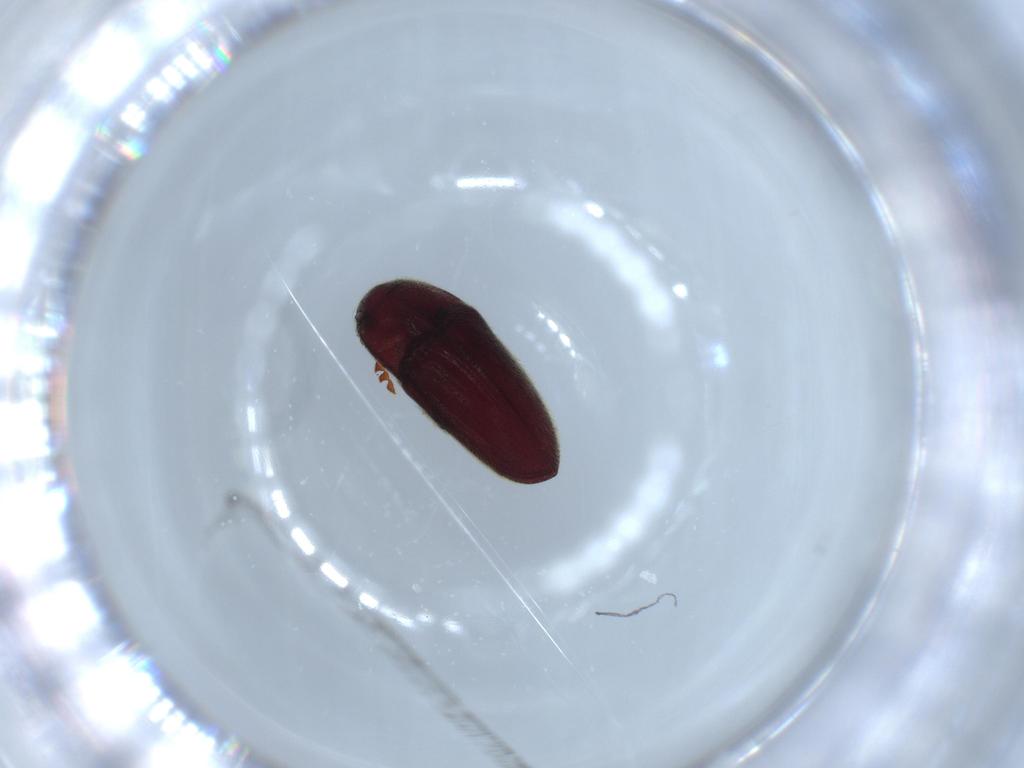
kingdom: Animalia
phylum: Arthropoda
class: Insecta
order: Coleoptera
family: Throscidae
